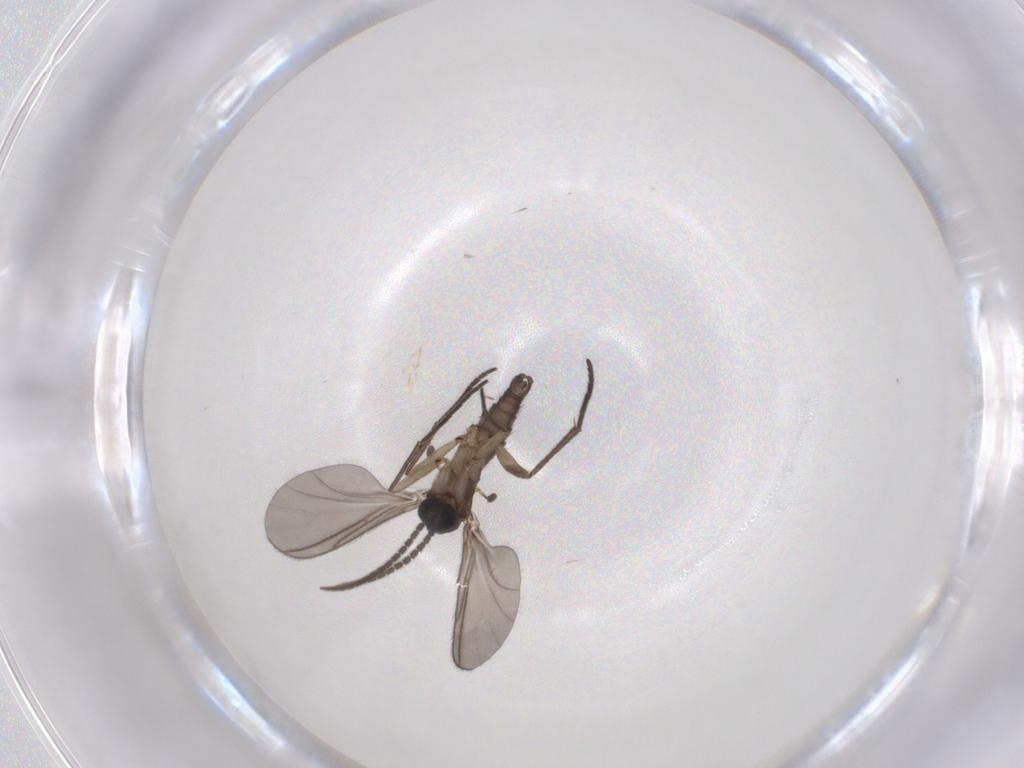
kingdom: Animalia
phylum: Arthropoda
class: Insecta
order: Diptera
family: Sciaridae
